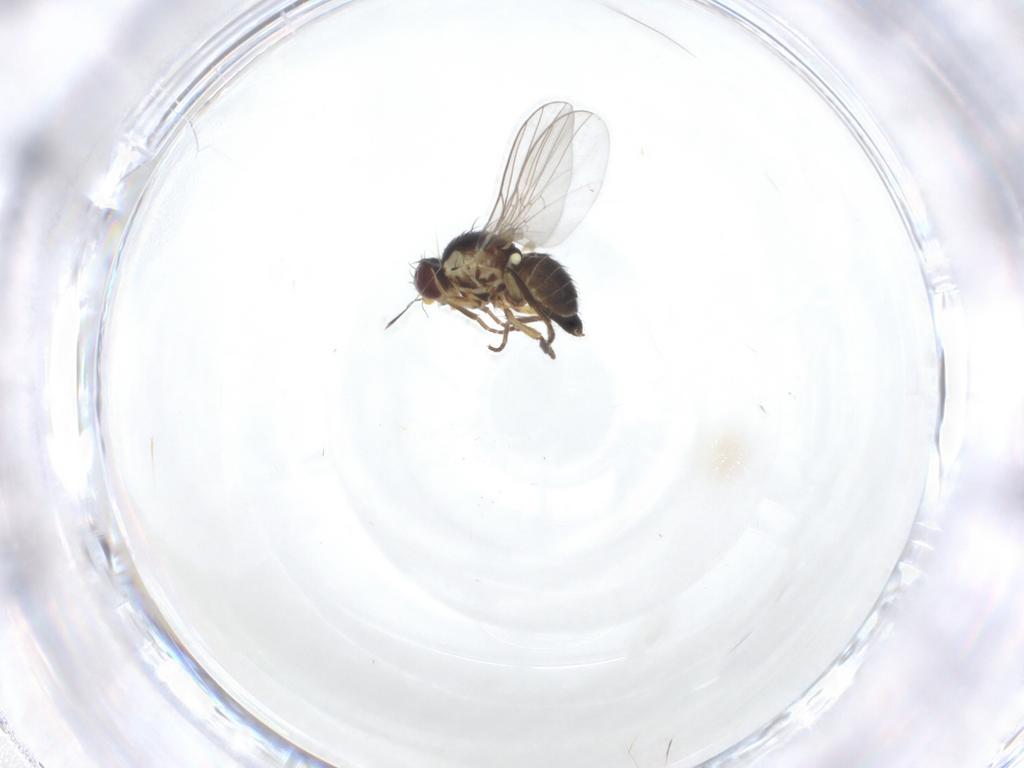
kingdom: Animalia
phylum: Arthropoda
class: Insecta
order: Diptera
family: Agromyzidae
